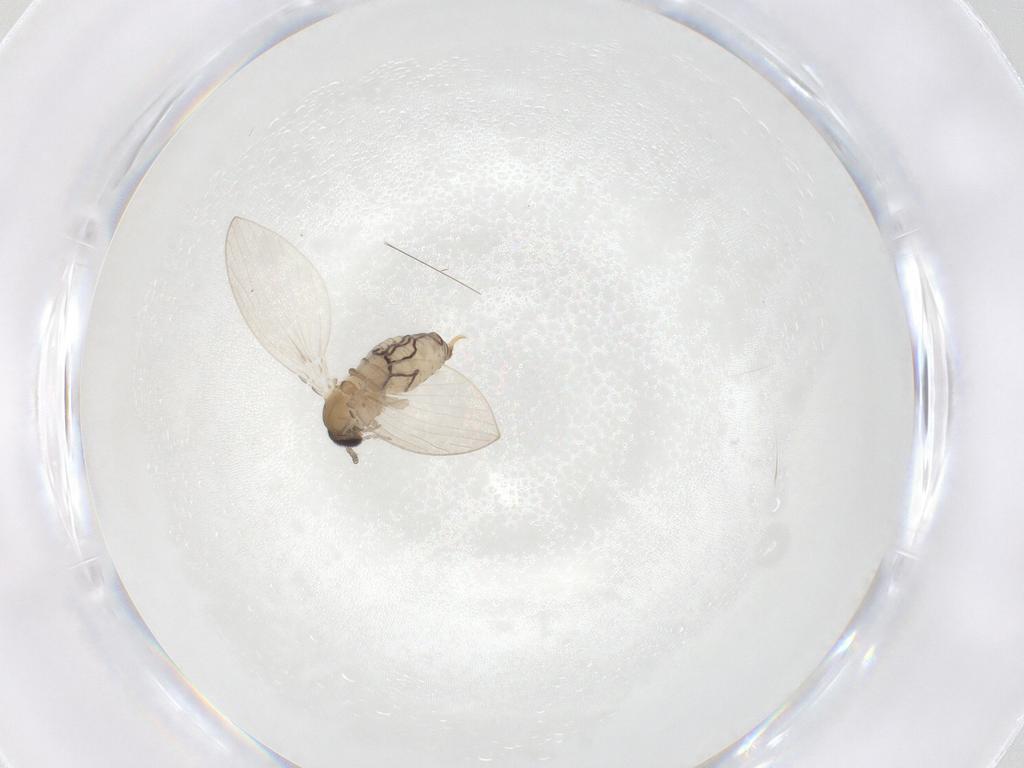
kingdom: Animalia
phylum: Arthropoda
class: Insecta
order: Diptera
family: Psychodidae
